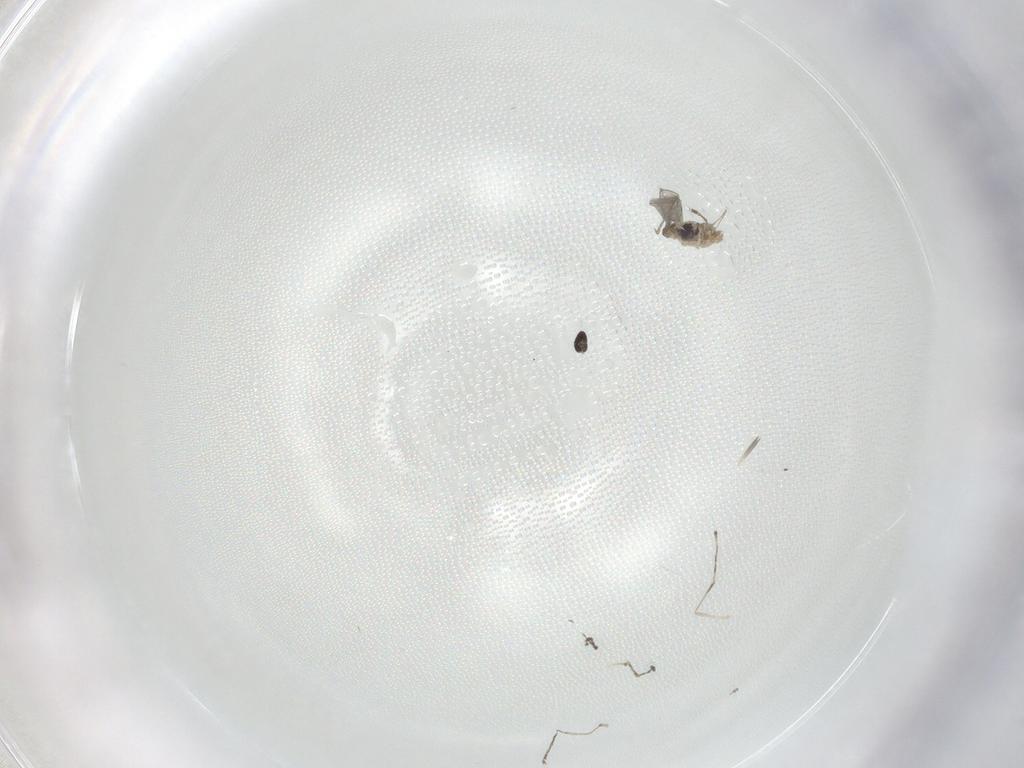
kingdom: Animalia
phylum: Arthropoda
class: Insecta
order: Diptera
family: Cecidomyiidae
